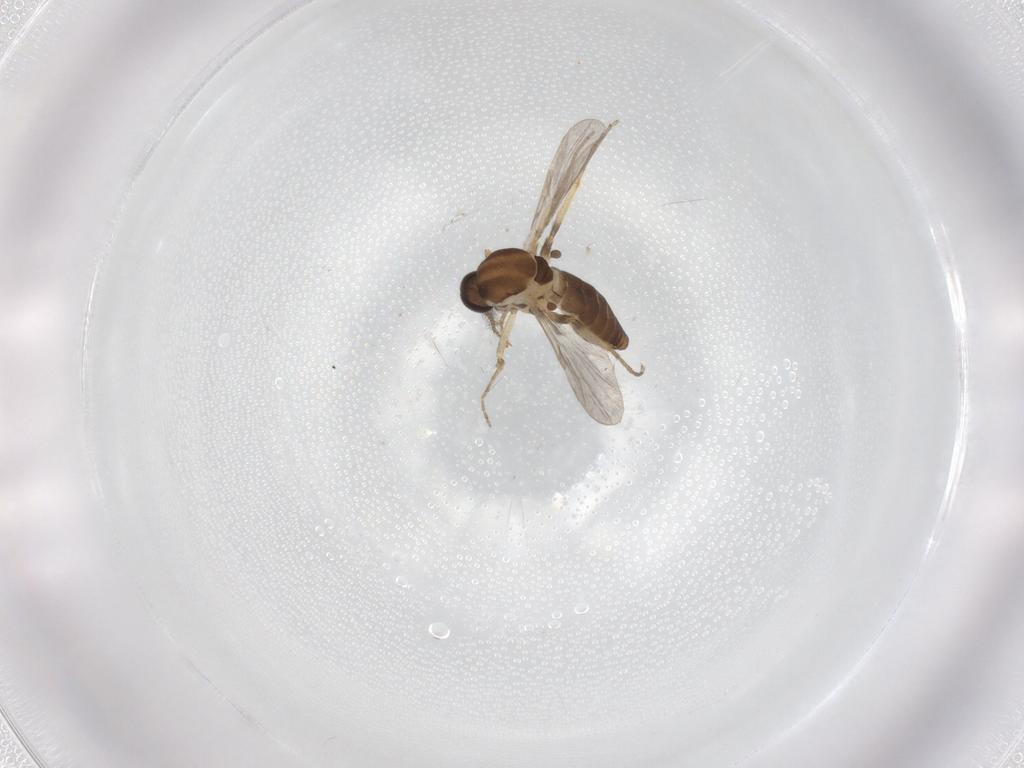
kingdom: Animalia
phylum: Arthropoda
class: Insecta
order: Diptera
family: Ceratopogonidae
